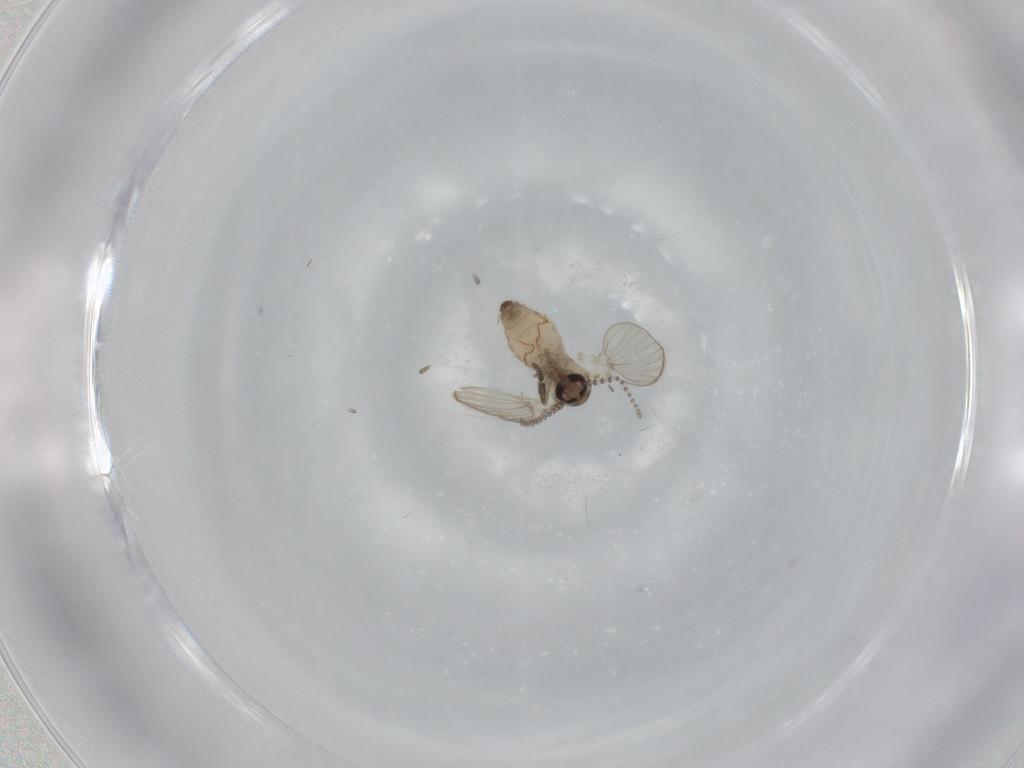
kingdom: Animalia
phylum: Arthropoda
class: Insecta
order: Diptera
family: Psychodidae
